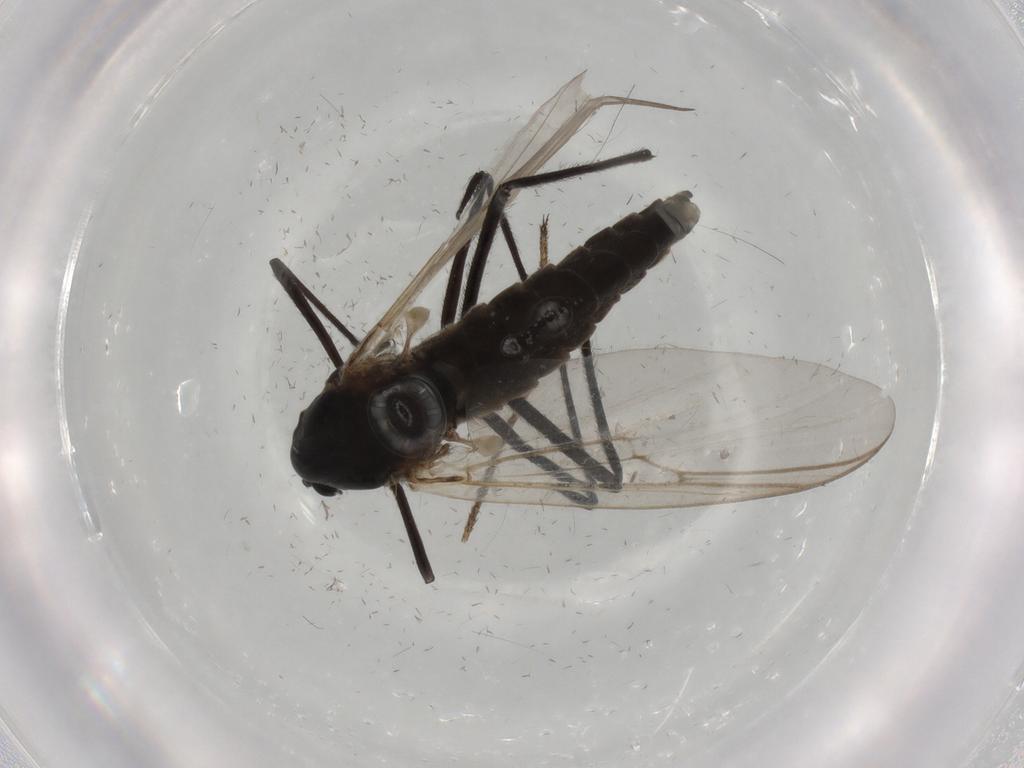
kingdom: Animalia
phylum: Arthropoda
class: Insecta
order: Diptera
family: Chironomidae
